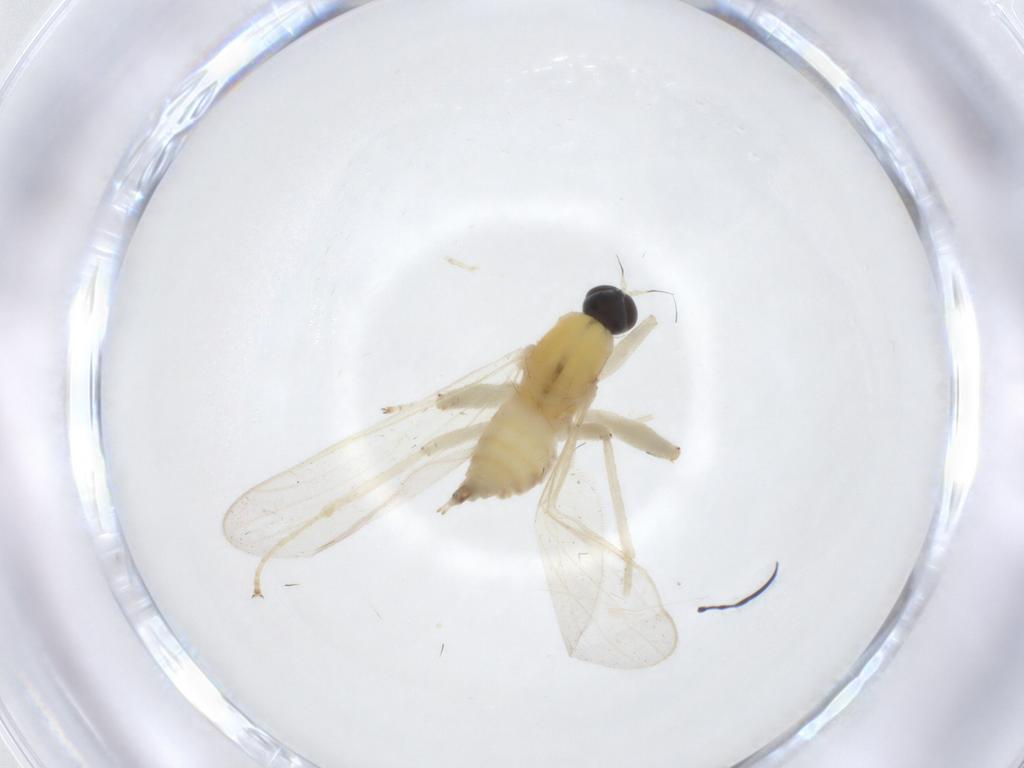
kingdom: Animalia
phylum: Arthropoda
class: Insecta
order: Diptera
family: Hybotidae
